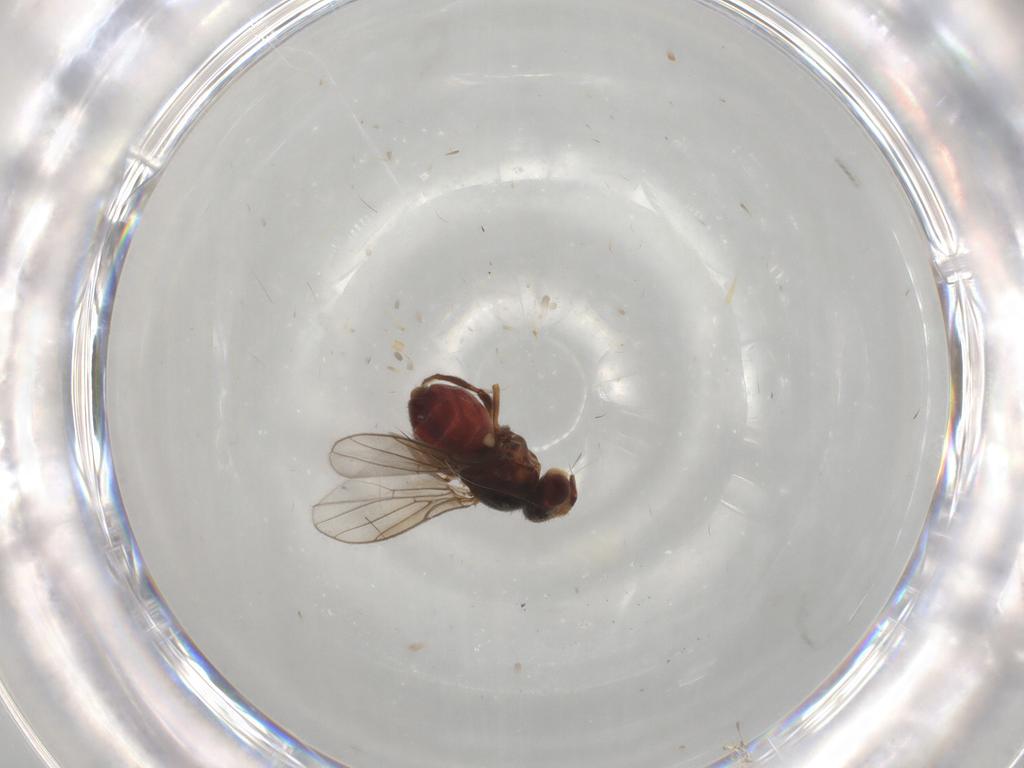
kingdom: Animalia
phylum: Arthropoda
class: Insecta
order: Diptera
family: Chloropidae
